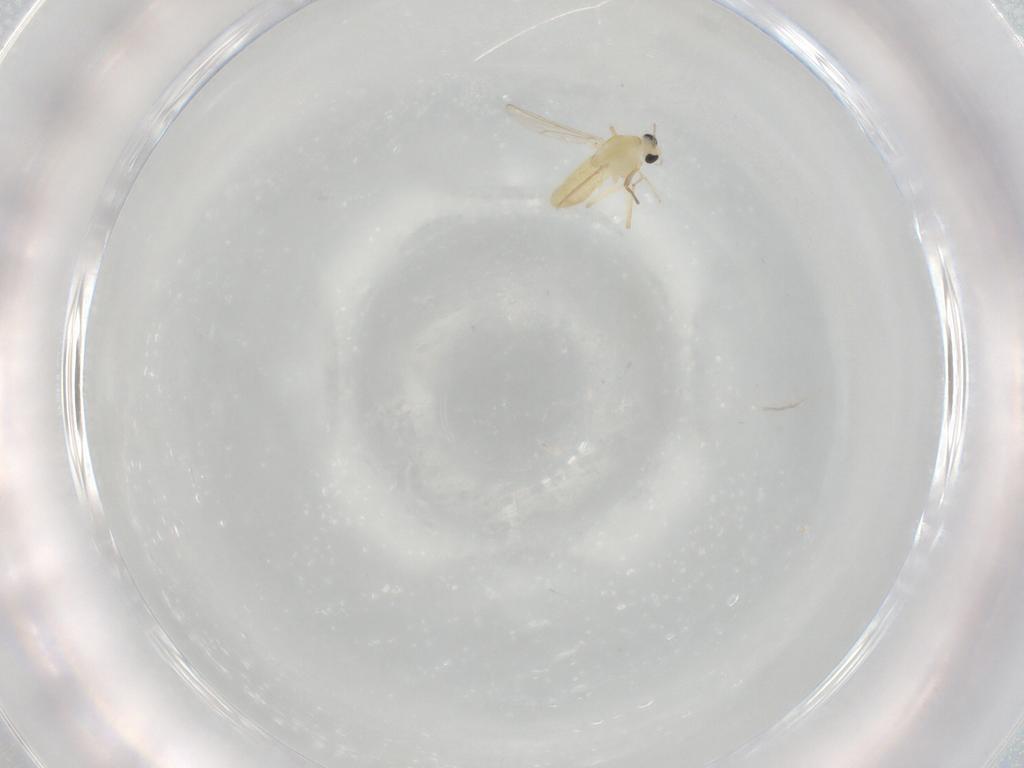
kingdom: Animalia
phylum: Arthropoda
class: Insecta
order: Diptera
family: Chironomidae
